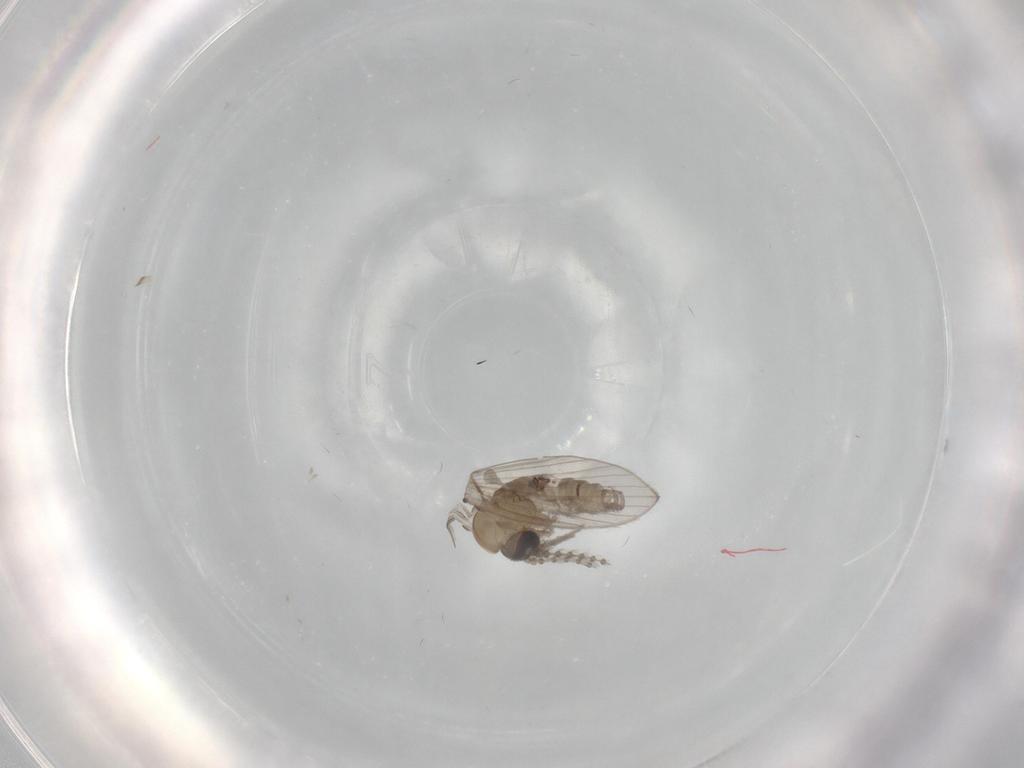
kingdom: Animalia
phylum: Arthropoda
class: Insecta
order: Diptera
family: Psychodidae
